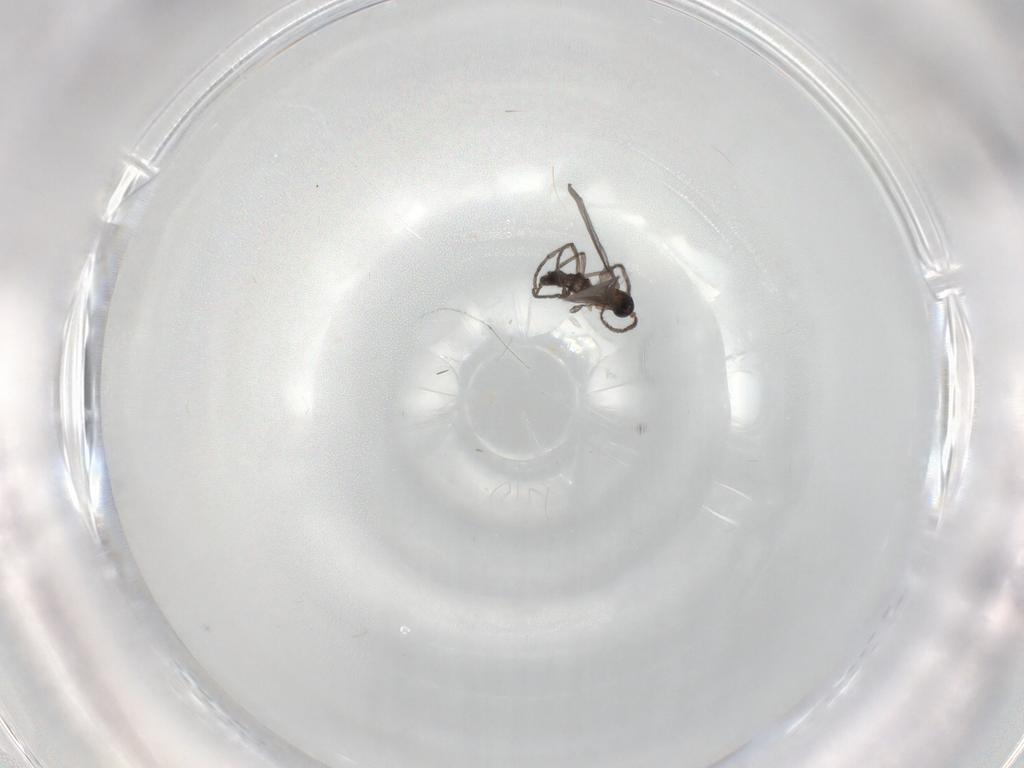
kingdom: Animalia
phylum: Arthropoda
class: Insecta
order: Diptera
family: Sciaridae
